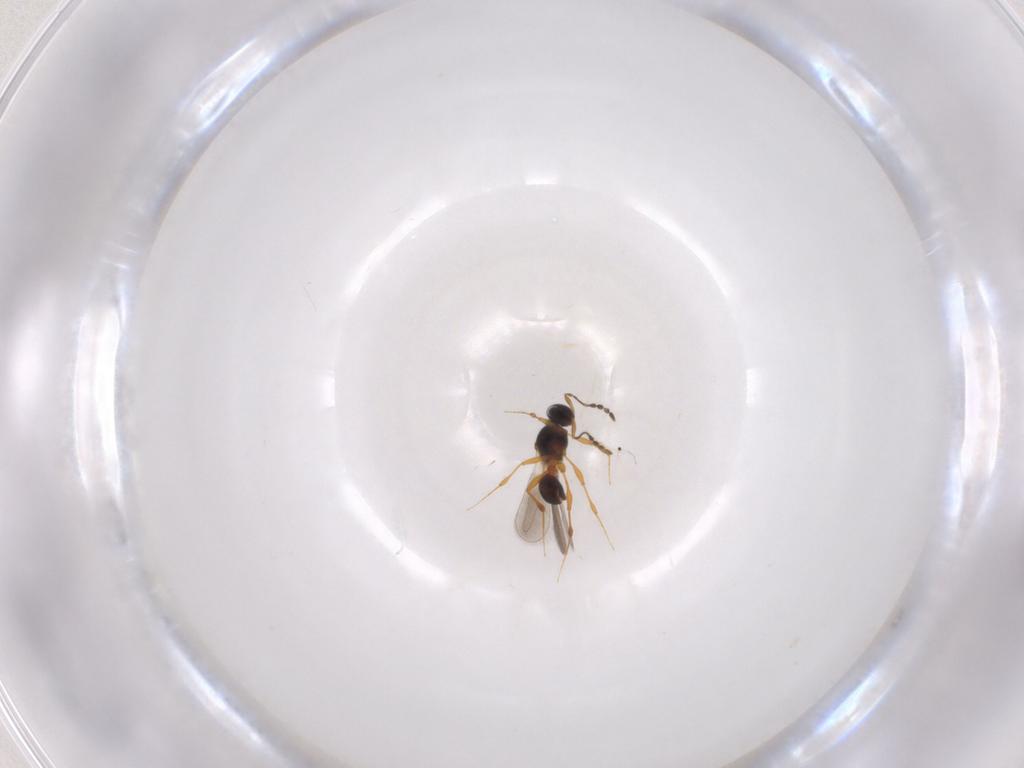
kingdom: Animalia
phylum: Arthropoda
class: Insecta
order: Hymenoptera
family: Platygastridae
